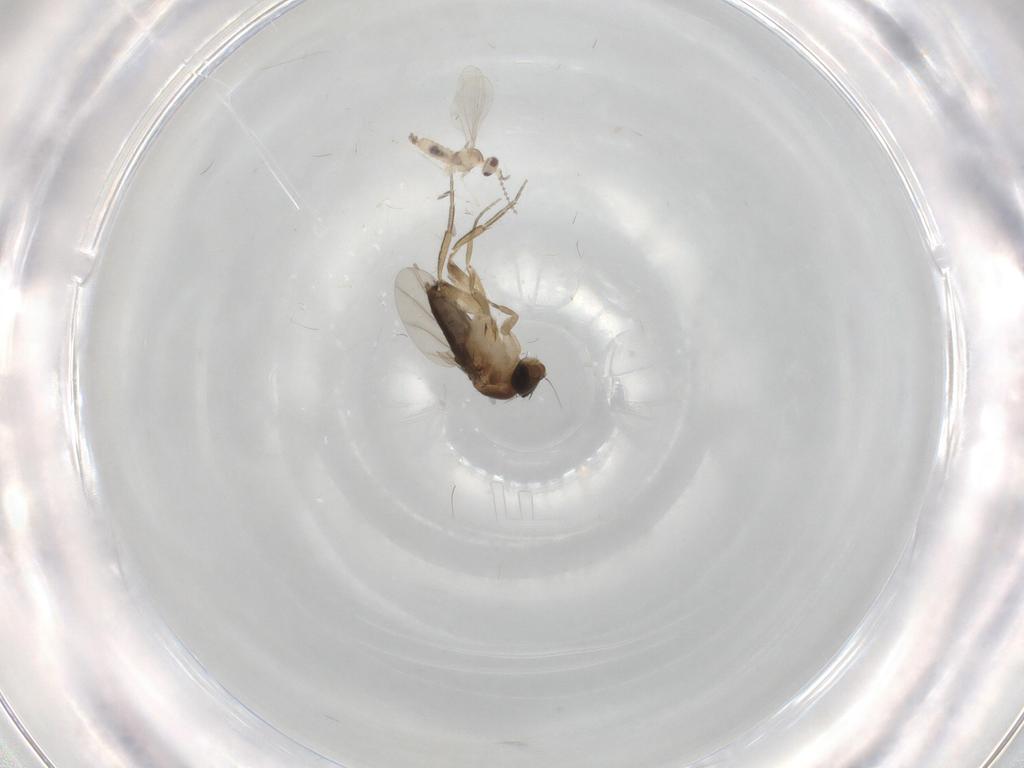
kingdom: Animalia
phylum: Arthropoda
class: Insecta
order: Diptera
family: Phoridae
